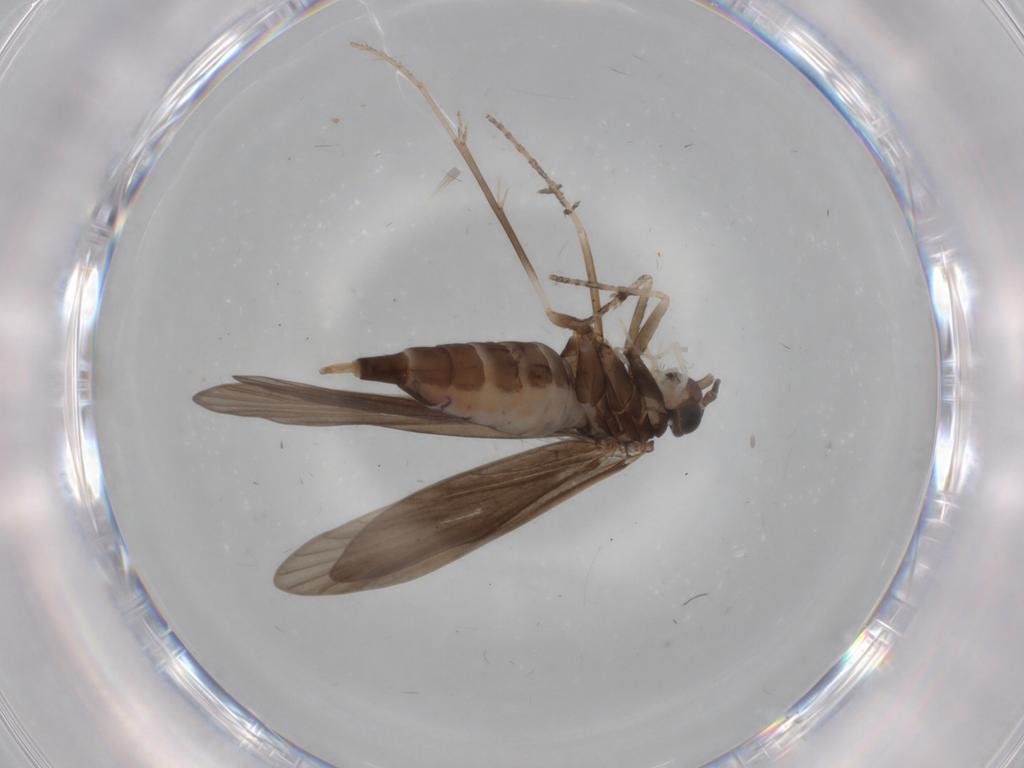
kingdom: Animalia
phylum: Arthropoda
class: Insecta
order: Trichoptera
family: Xiphocentronidae
